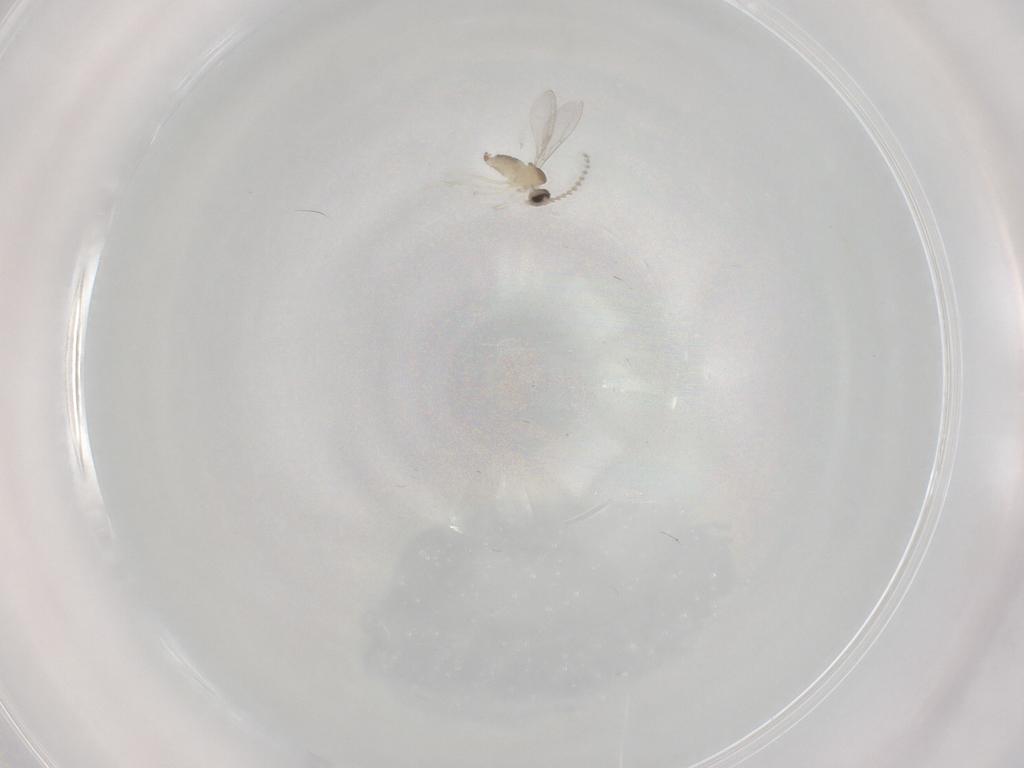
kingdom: Animalia
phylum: Arthropoda
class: Insecta
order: Diptera
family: Cecidomyiidae
